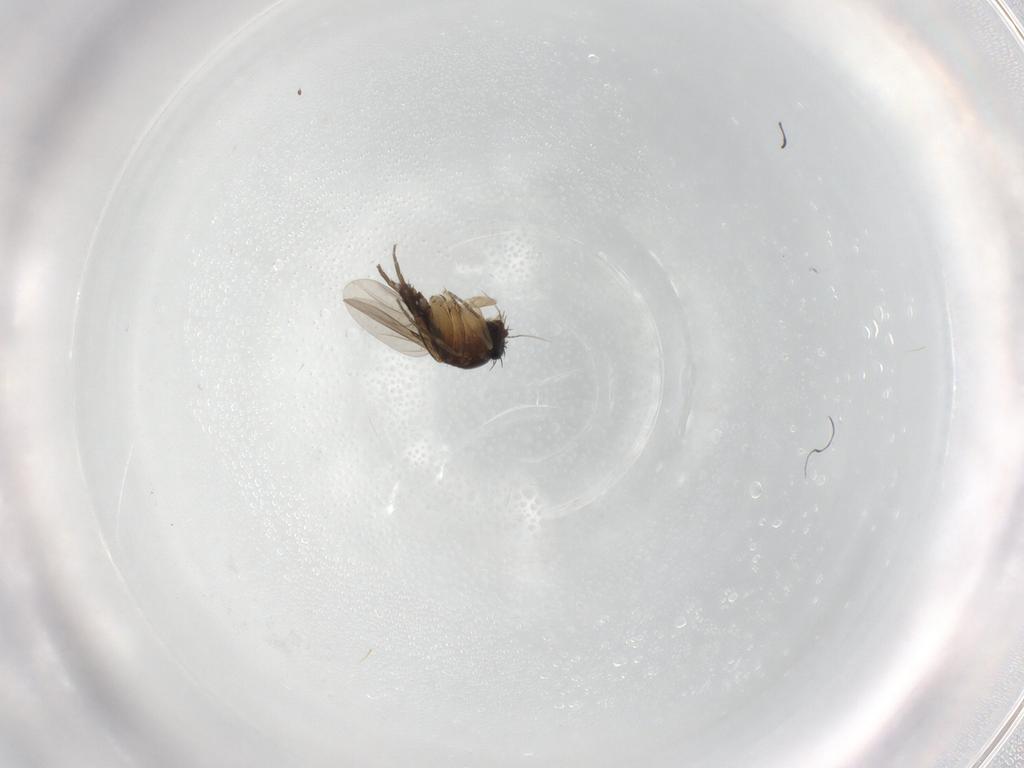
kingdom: Animalia
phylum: Arthropoda
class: Insecta
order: Diptera
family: Phoridae
